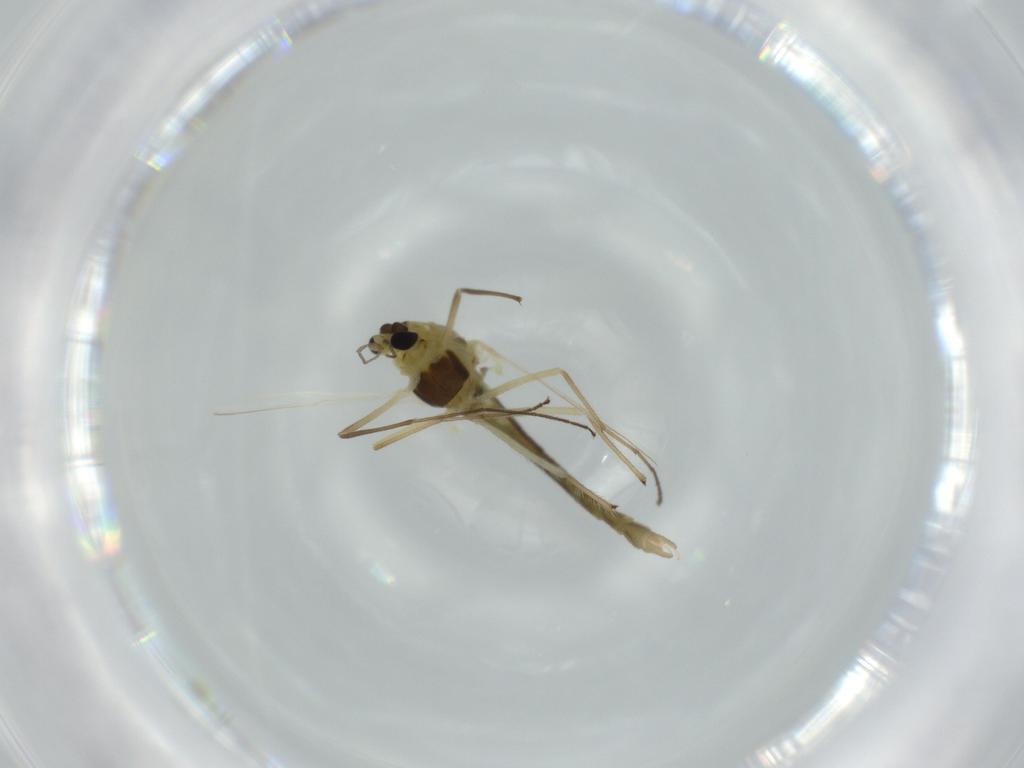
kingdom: Animalia
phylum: Arthropoda
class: Insecta
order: Diptera
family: Chironomidae
